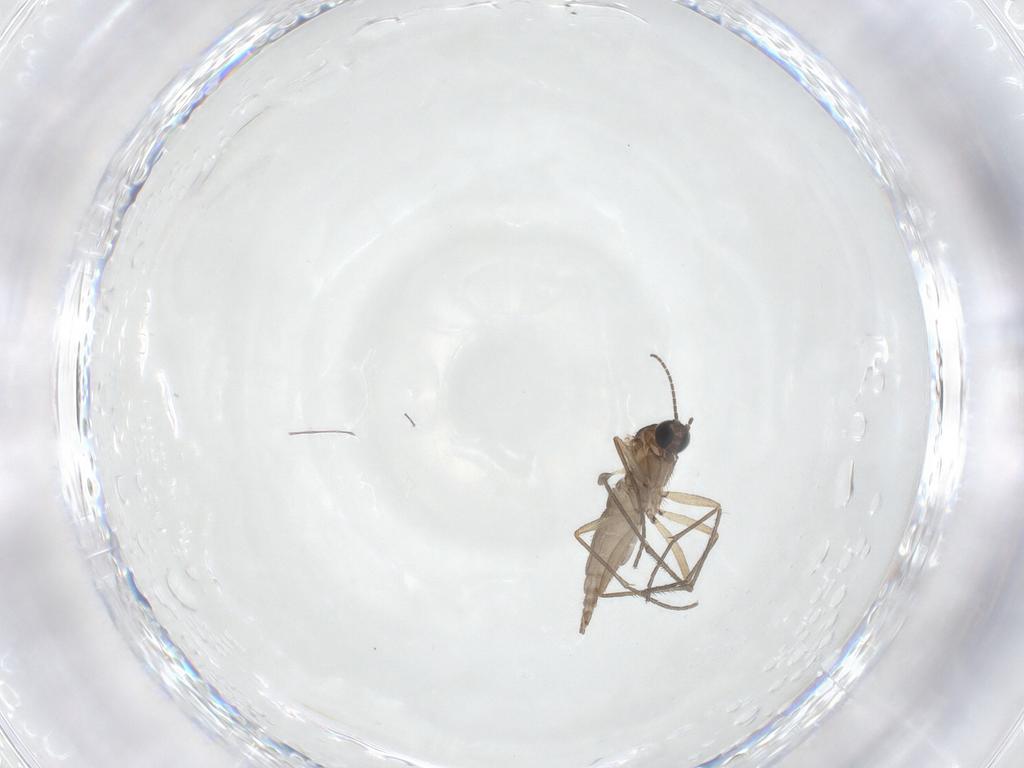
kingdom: Animalia
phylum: Arthropoda
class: Insecta
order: Diptera
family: Sciaridae
